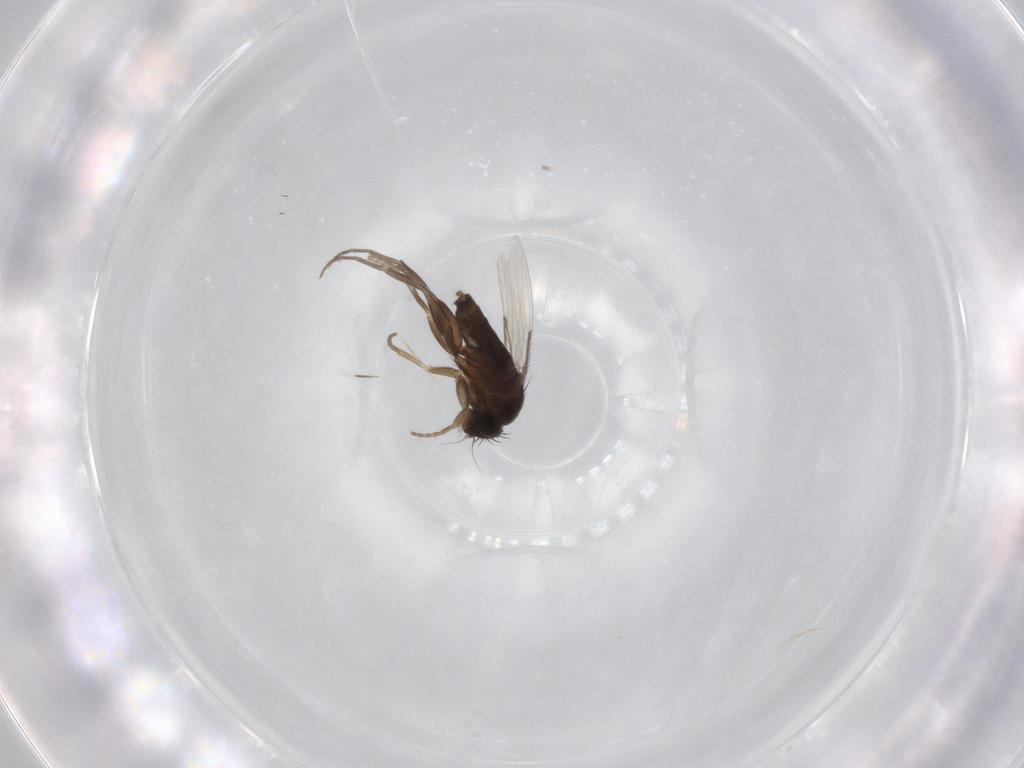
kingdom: Animalia
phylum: Arthropoda
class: Insecta
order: Diptera
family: Phoridae
